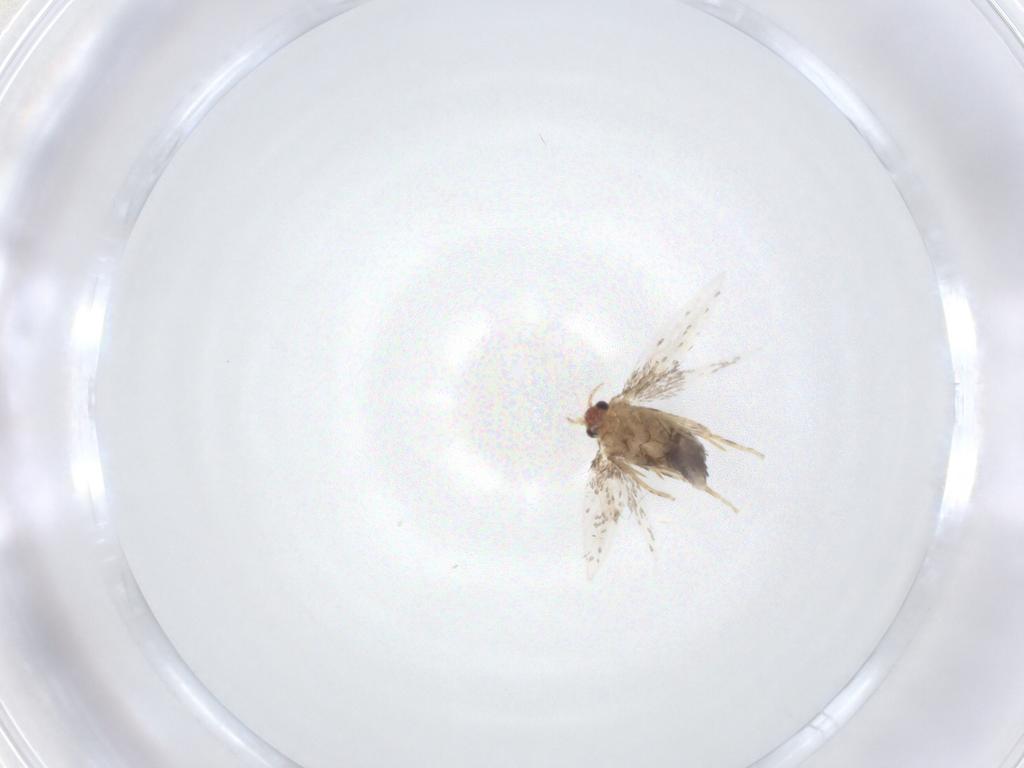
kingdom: Animalia
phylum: Arthropoda
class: Insecta
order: Lepidoptera
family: Nepticulidae
